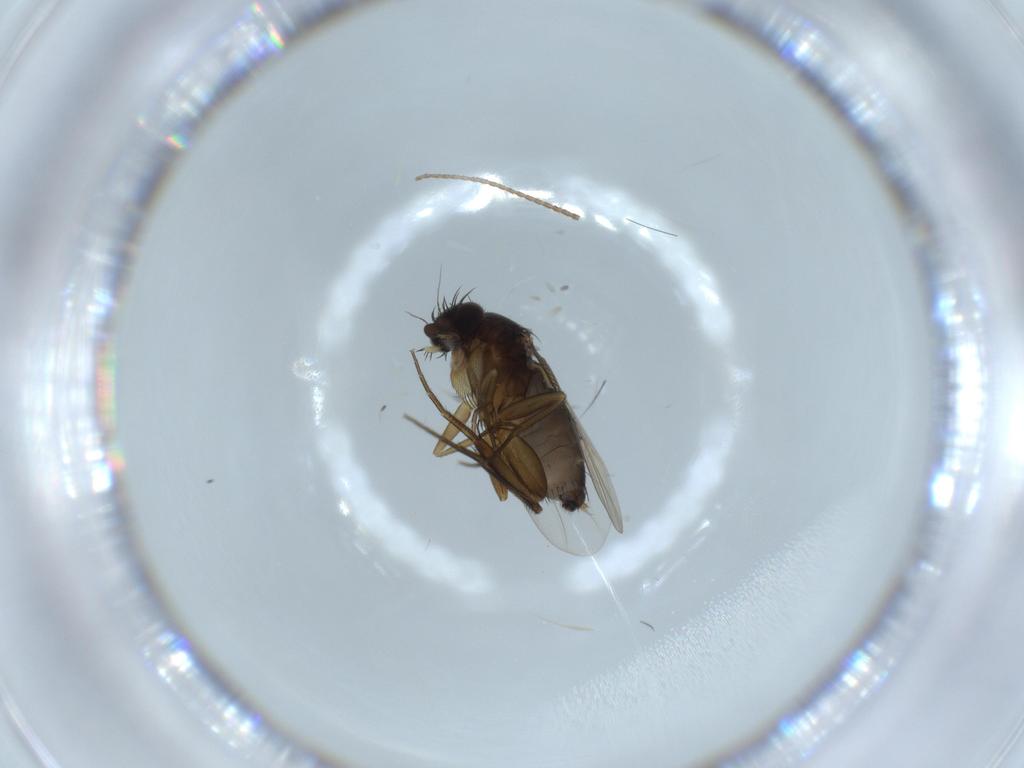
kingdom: Animalia
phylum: Arthropoda
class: Insecta
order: Diptera
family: Phoridae
